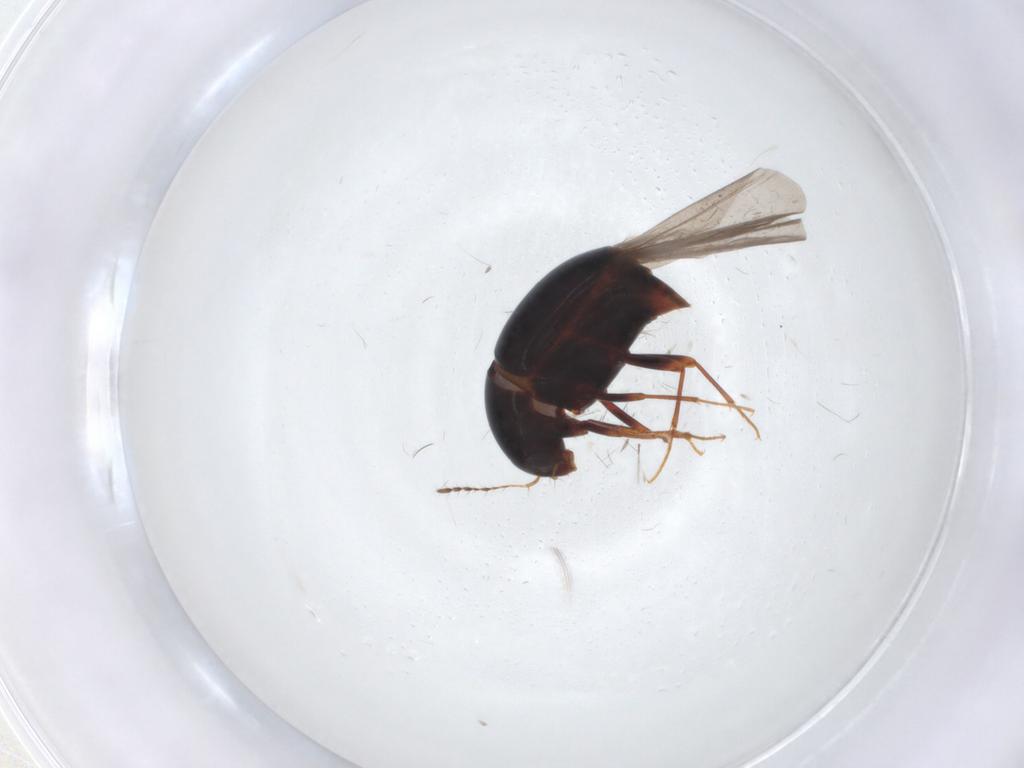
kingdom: Animalia
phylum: Arthropoda
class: Insecta
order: Coleoptera
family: Staphylinidae
